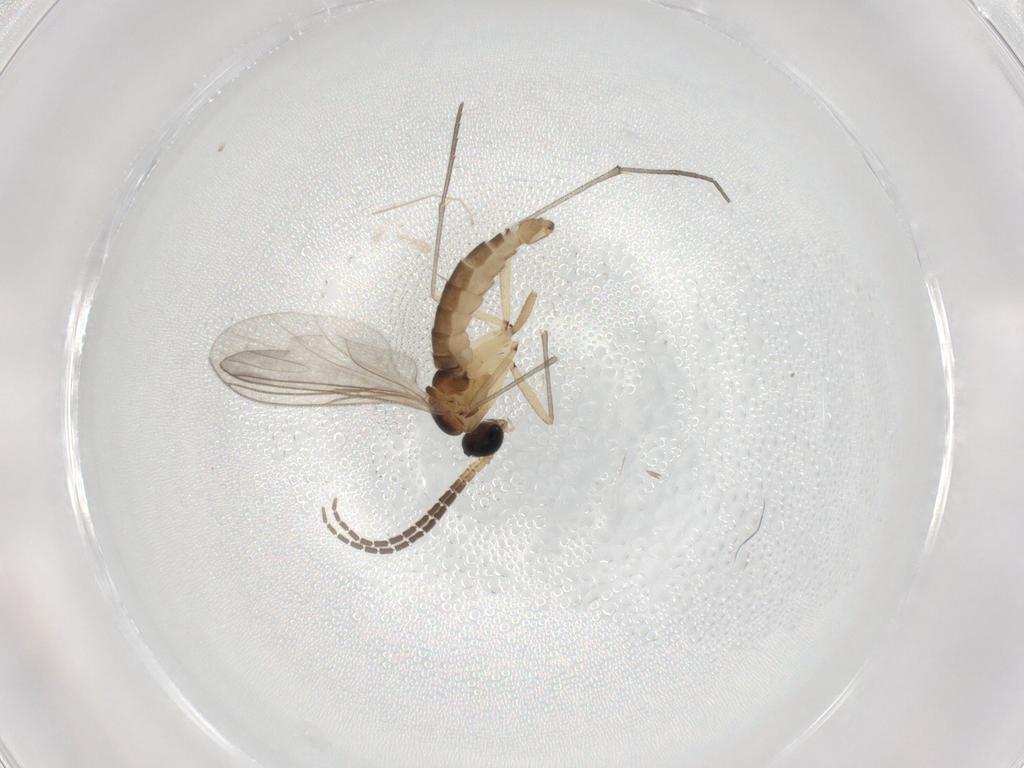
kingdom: Animalia
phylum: Arthropoda
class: Insecta
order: Diptera
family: Sciaridae
